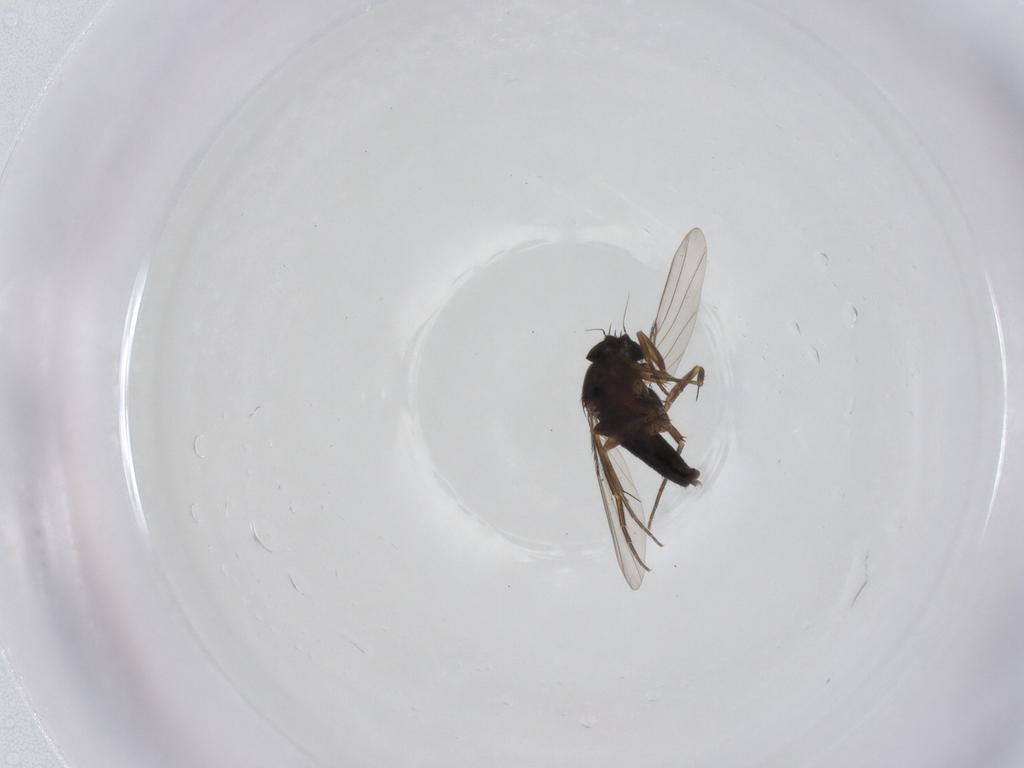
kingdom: Animalia
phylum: Arthropoda
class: Insecta
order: Diptera
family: Phoridae
